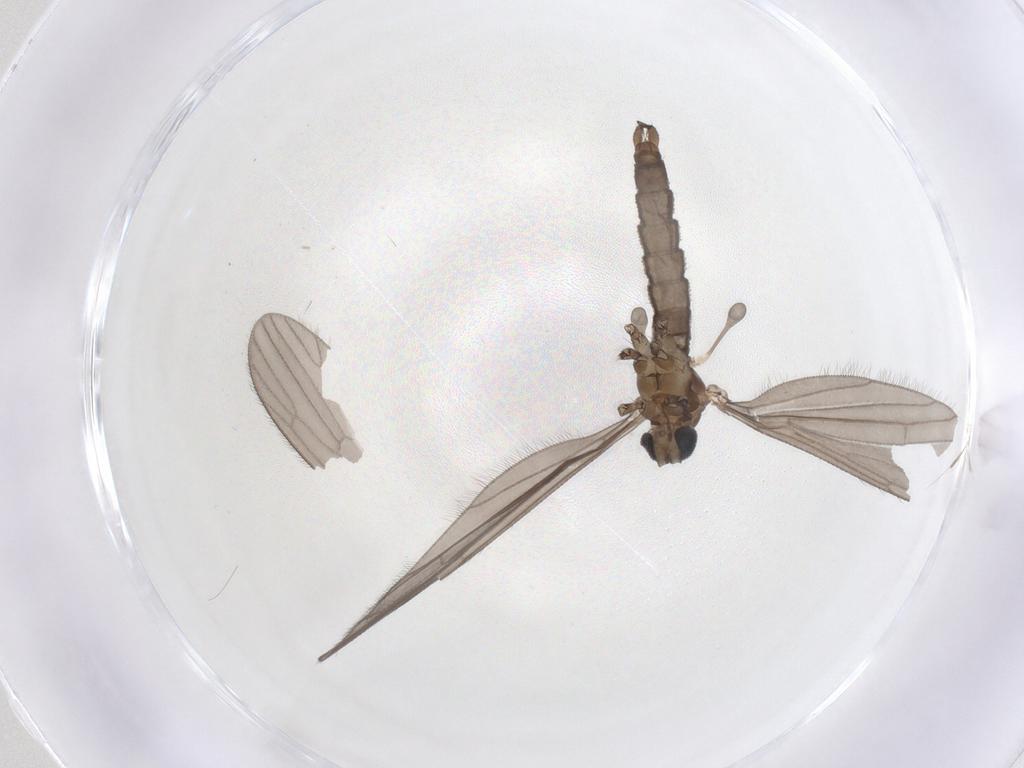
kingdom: Animalia
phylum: Arthropoda
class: Insecta
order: Diptera
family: Limoniidae
